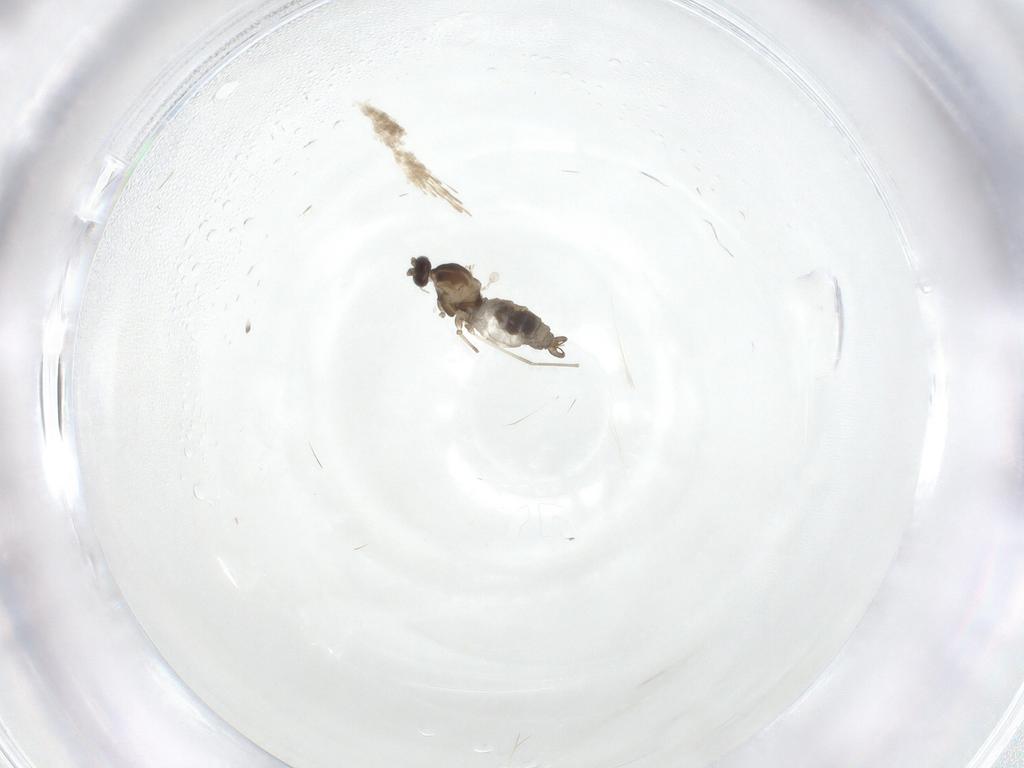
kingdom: Animalia
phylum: Arthropoda
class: Insecta
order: Diptera
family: Cecidomyiidae
